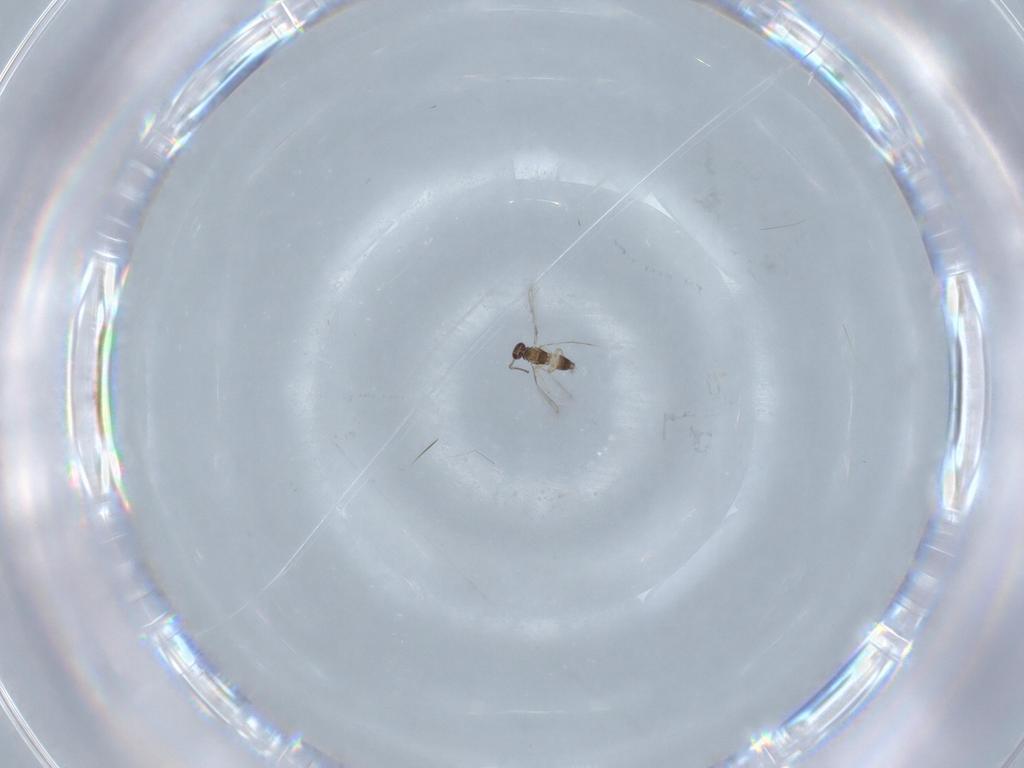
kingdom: Animalia
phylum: Arthropoda
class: Insecta
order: Hymenoptera
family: Mymaridae
